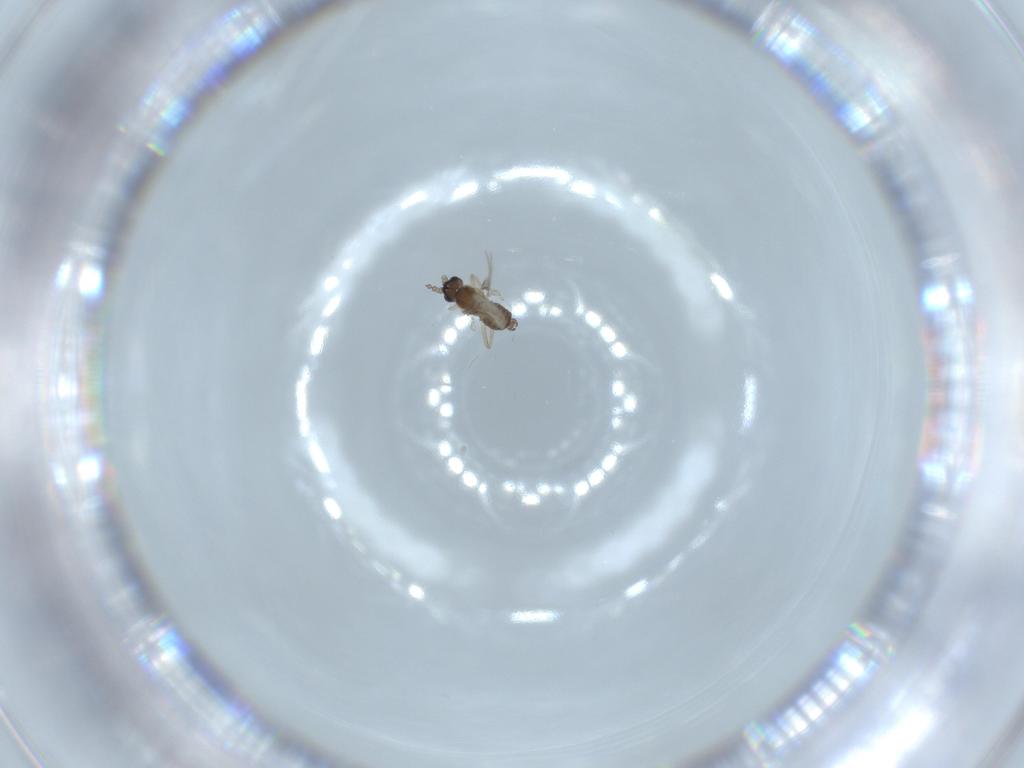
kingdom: Animalia
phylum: Arthropoda
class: Insecta
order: Diptera
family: Cecidomyiidae
